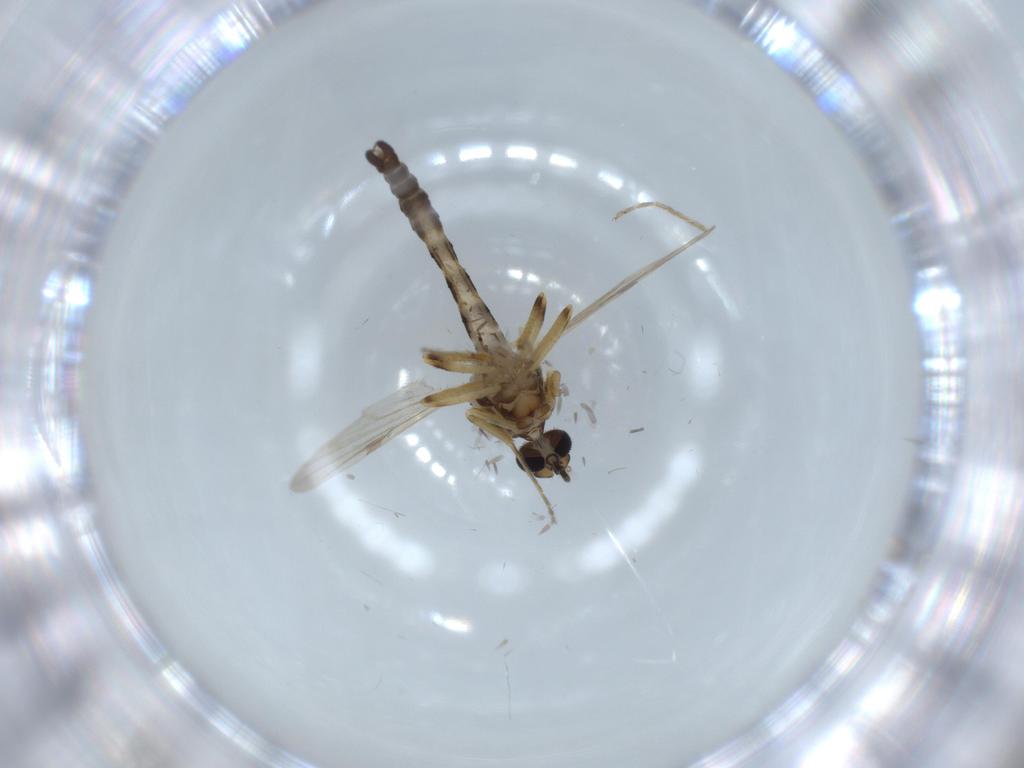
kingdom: Animalia
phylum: Arthropoda
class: Insecta
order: Diptera
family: Ceratopogonidae
